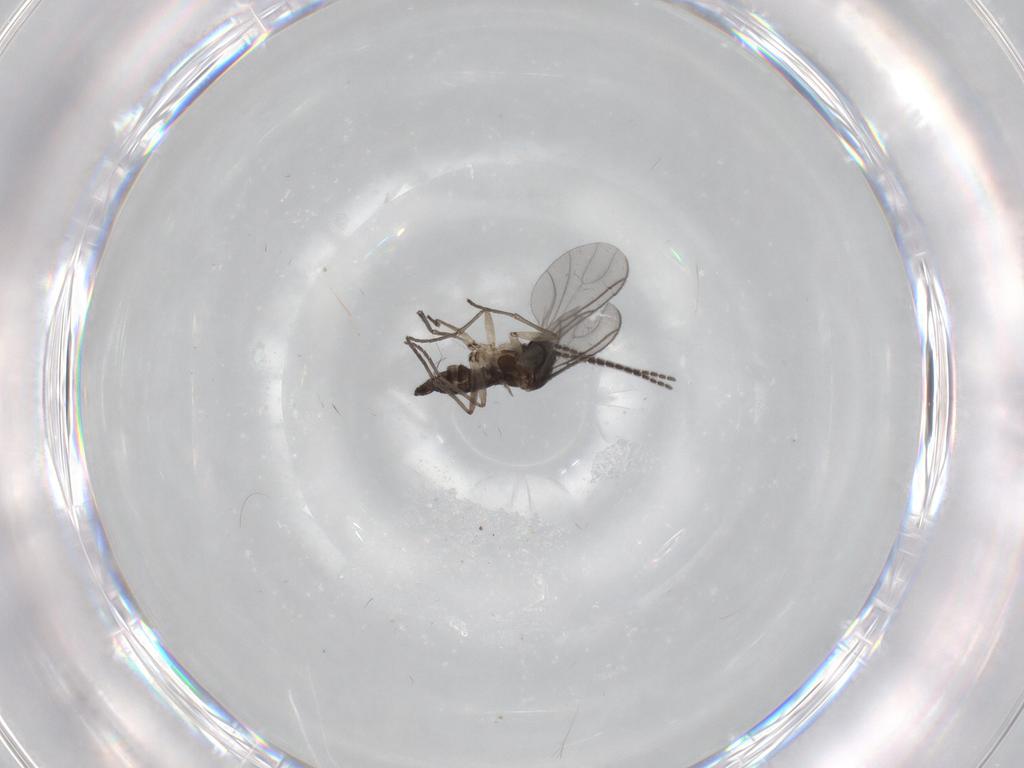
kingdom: Animalia
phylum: Arthropoda
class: Insecta
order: Diptera
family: Sciaridae
